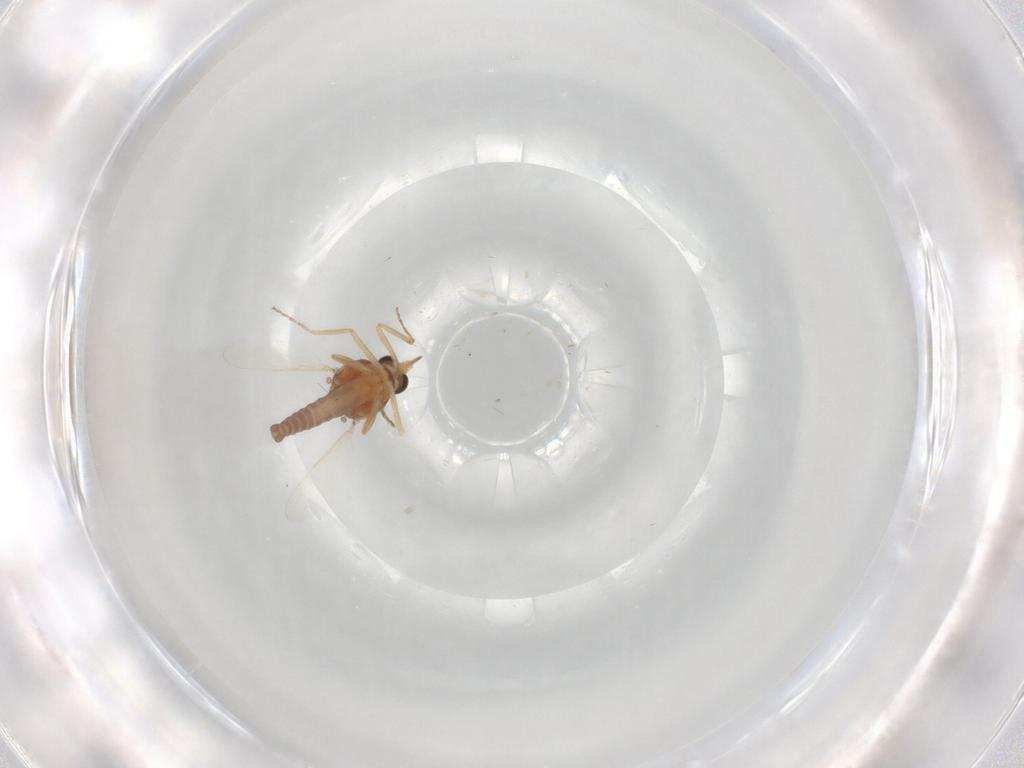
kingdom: Animalia
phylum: Arthropoda
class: Insecta
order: Diptera
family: Ceratopogonidae
